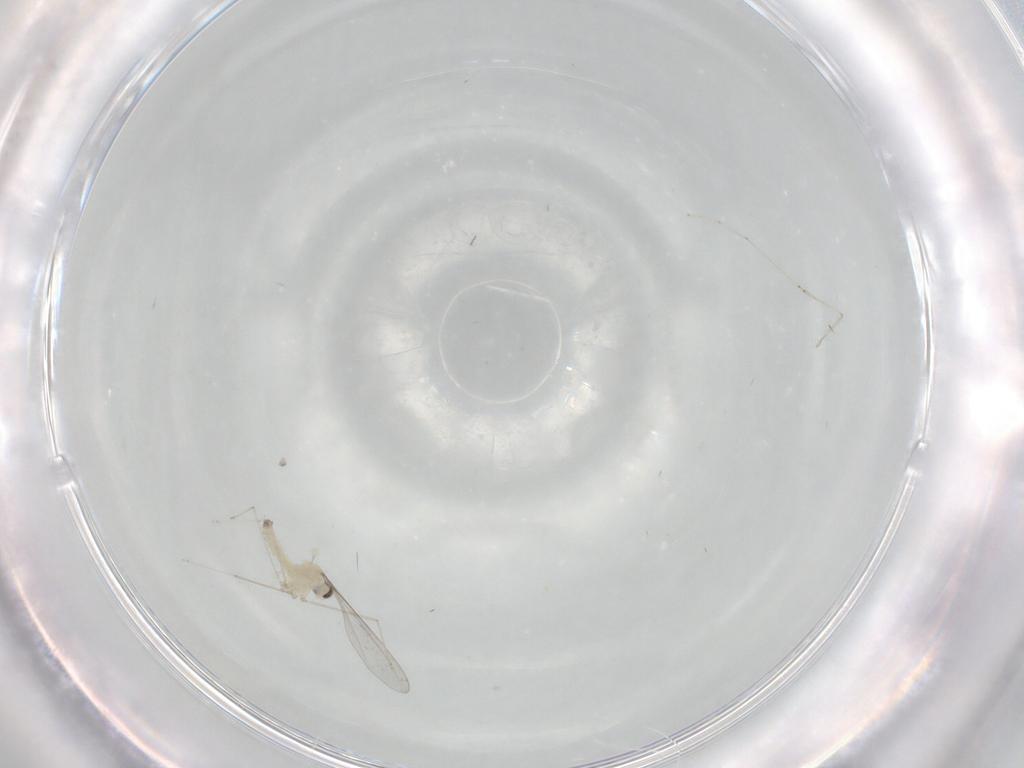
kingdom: Animalia
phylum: Arthropoda
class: Insecta
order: Diptera
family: Cecidomyiidae
